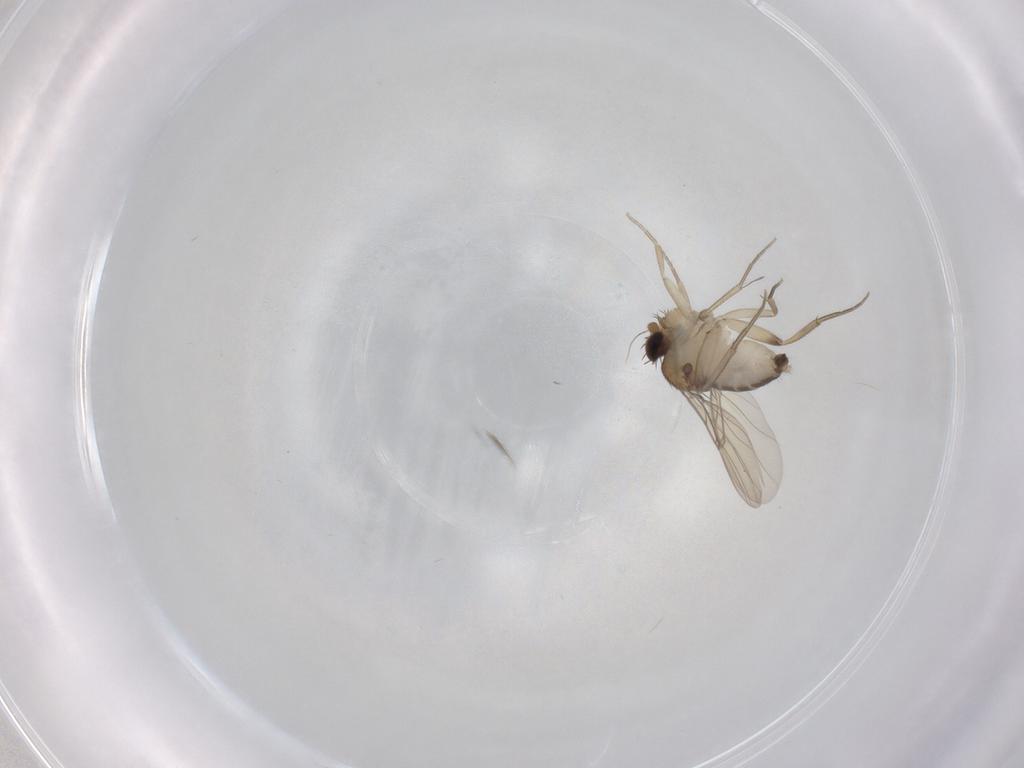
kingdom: Animalia
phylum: Arthropoda
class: Insecta
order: Diptera
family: Phoridae
